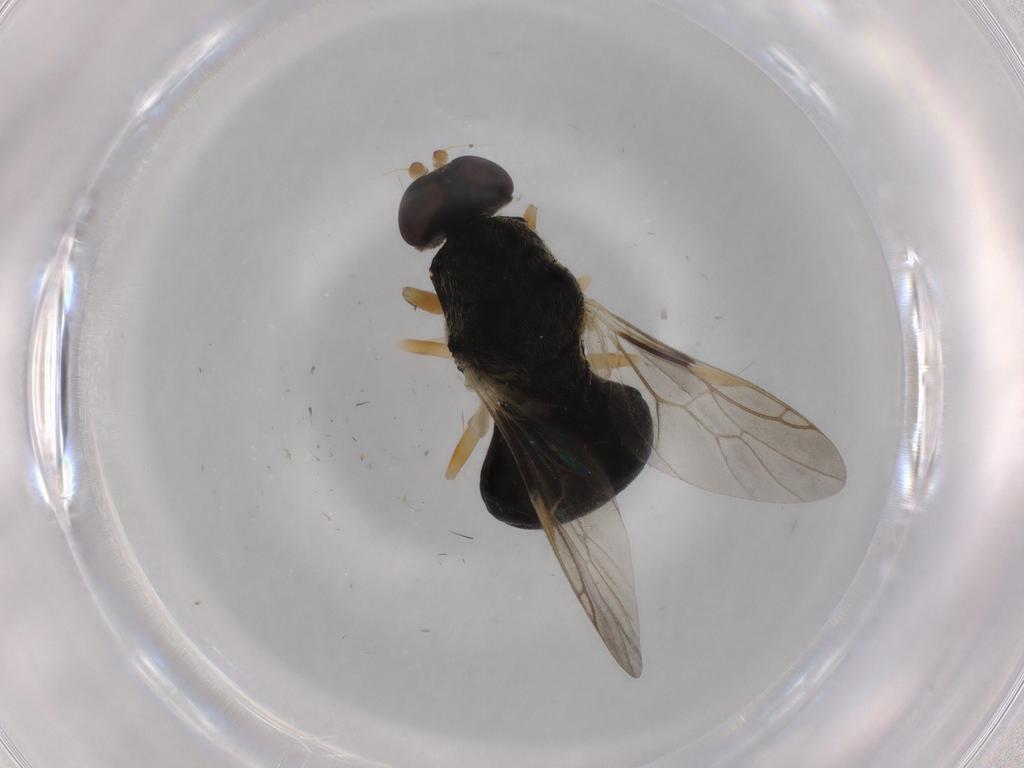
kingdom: Animalia
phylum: Arthropoda
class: Insecta
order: Diptera
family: Stratiomyidae
